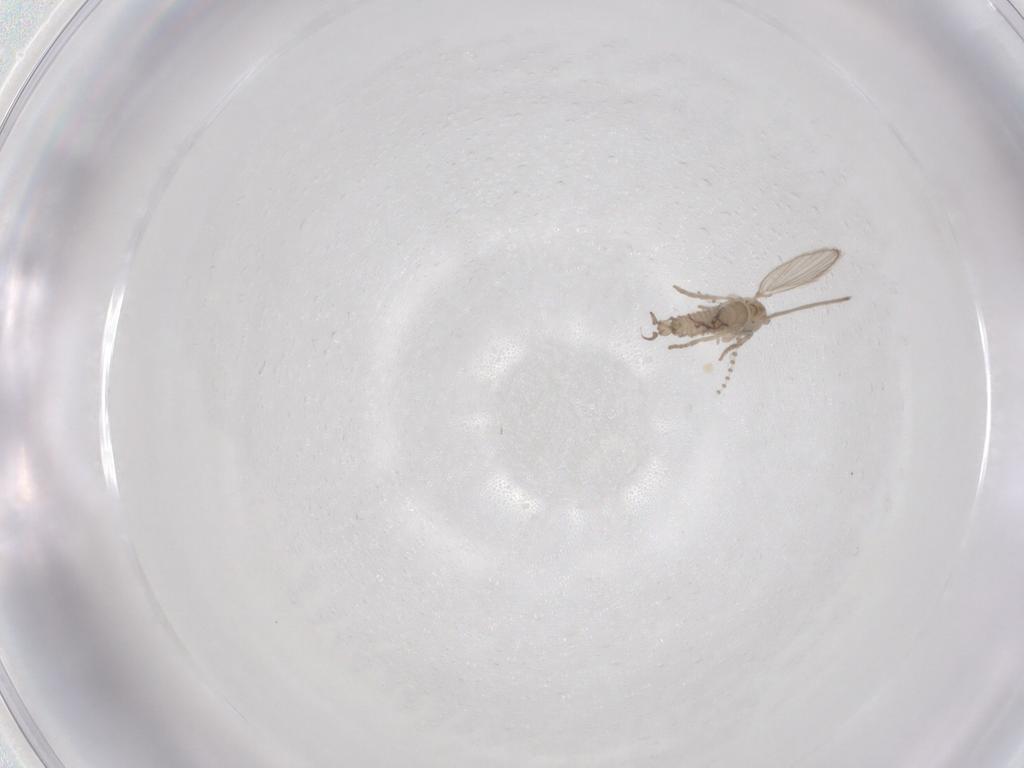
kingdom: Animalia
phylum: Arthropoda
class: Insecta
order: Diptera
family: Psychodidae
